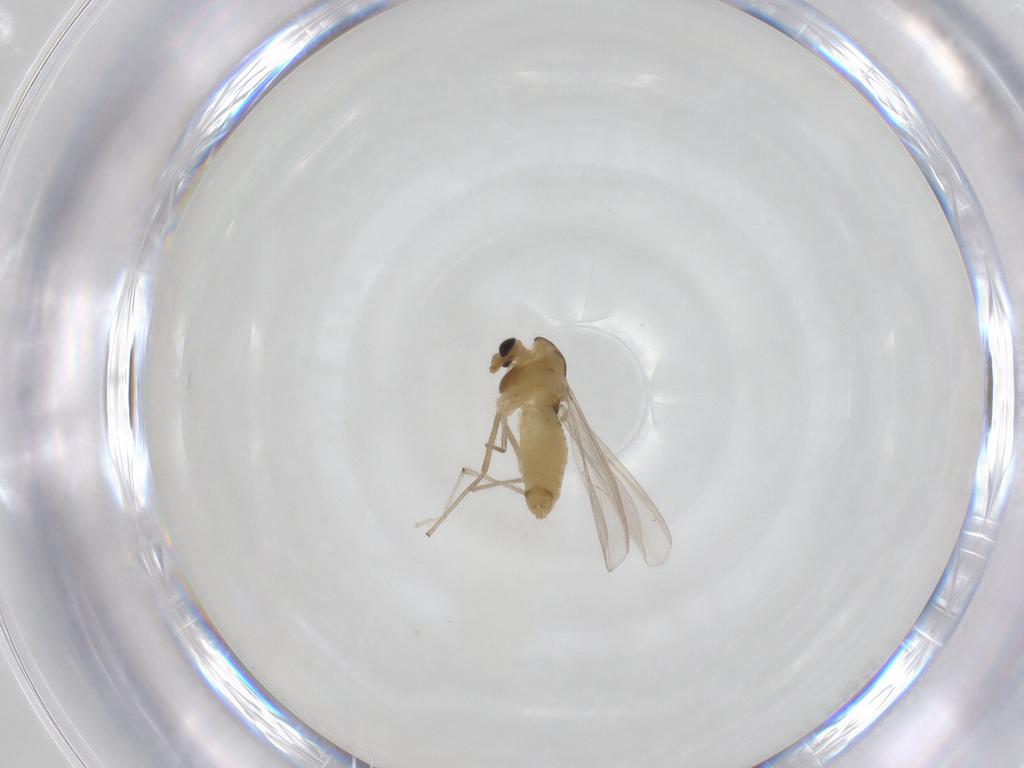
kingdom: Animalia
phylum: Arthropoda
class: Insecta
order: Diptera
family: Chironomidae
